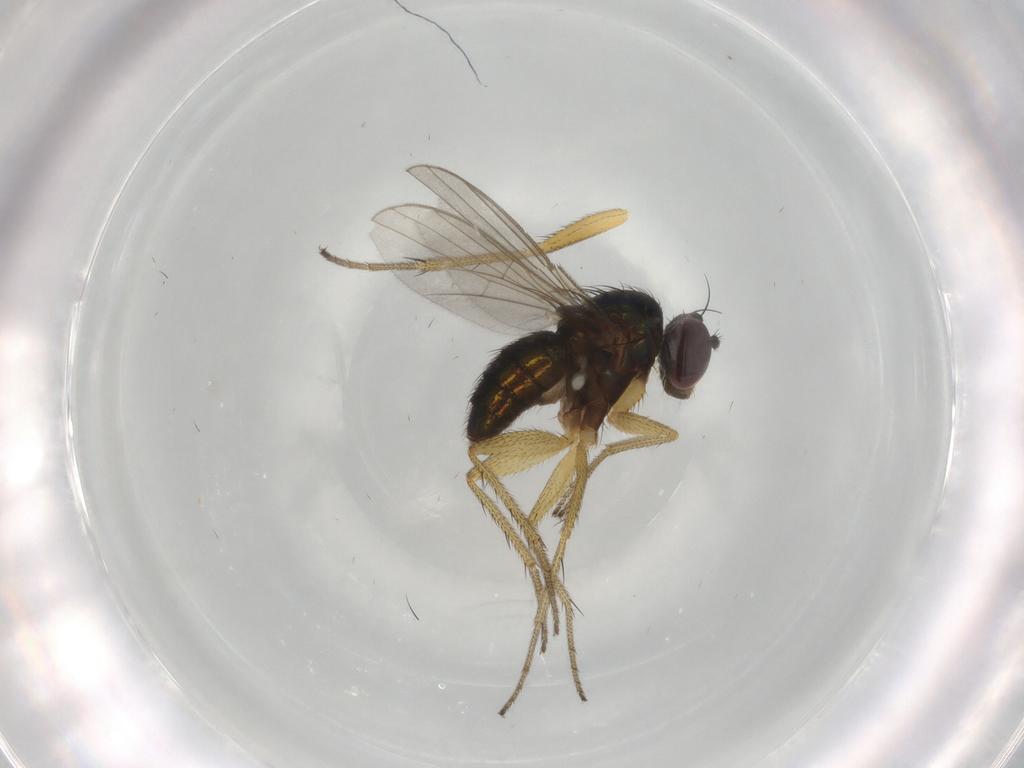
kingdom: Animalia
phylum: Arthropoda
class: Insecta
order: Diptera
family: Dolichopodidae
